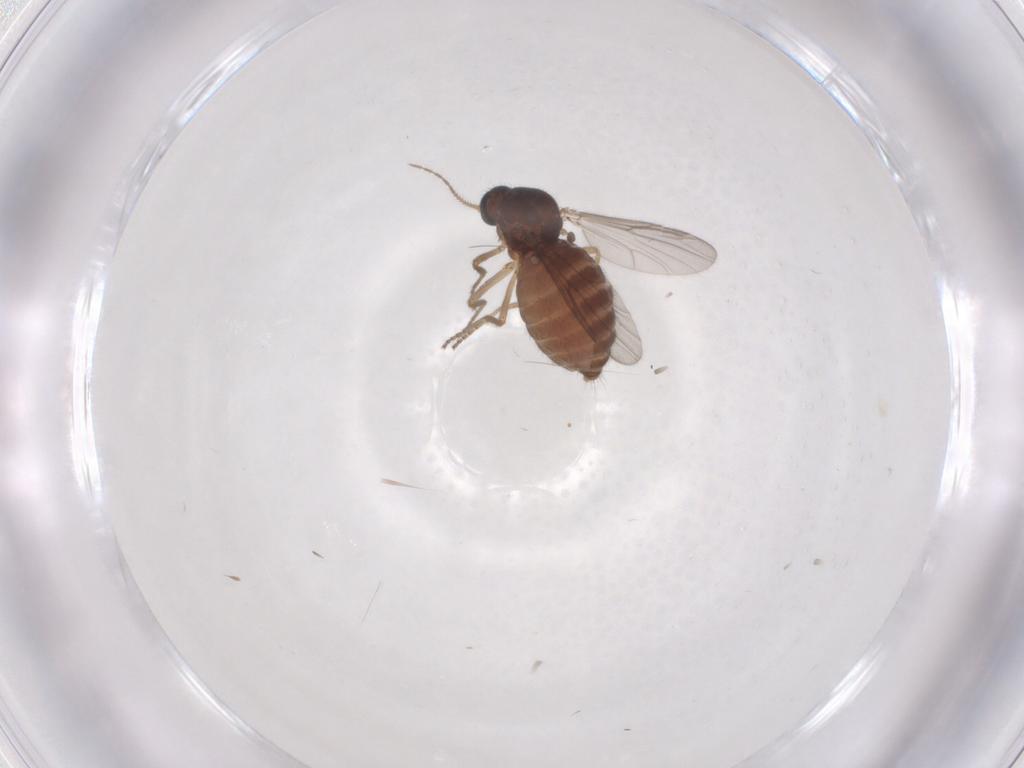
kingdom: Animalia
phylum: Arthropoda
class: Insecta
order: Diptera
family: Ceratopogonidae
